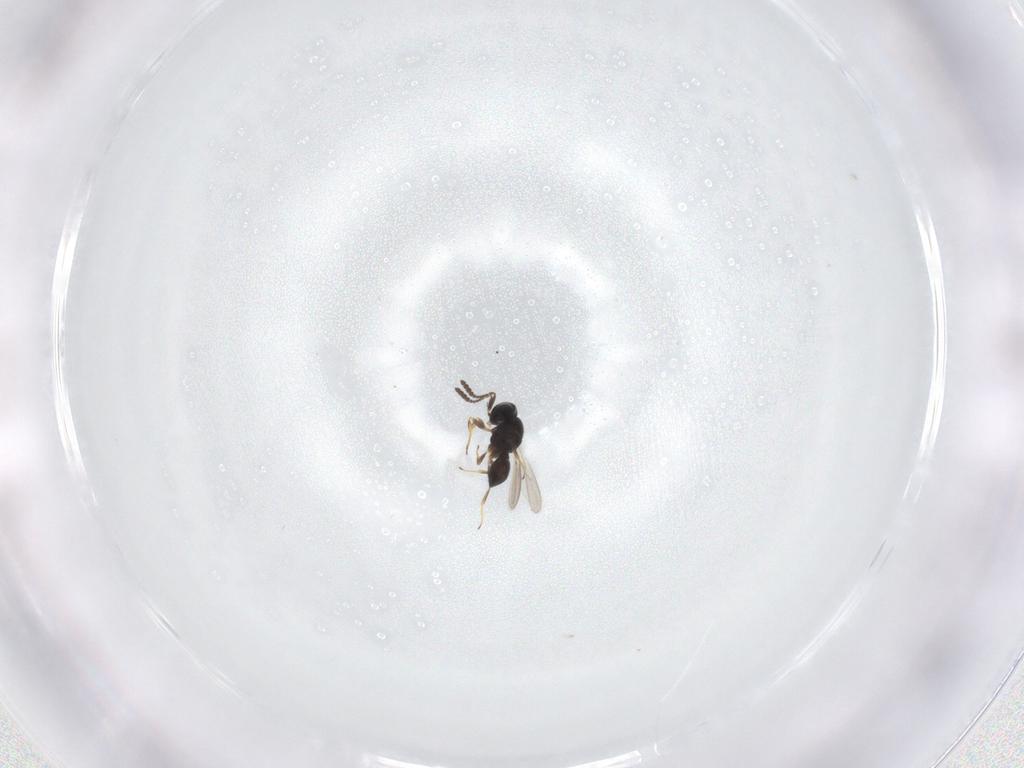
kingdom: Animalia
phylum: Arthropoda
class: Insecta
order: Hymenoptera
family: Scelionidae
